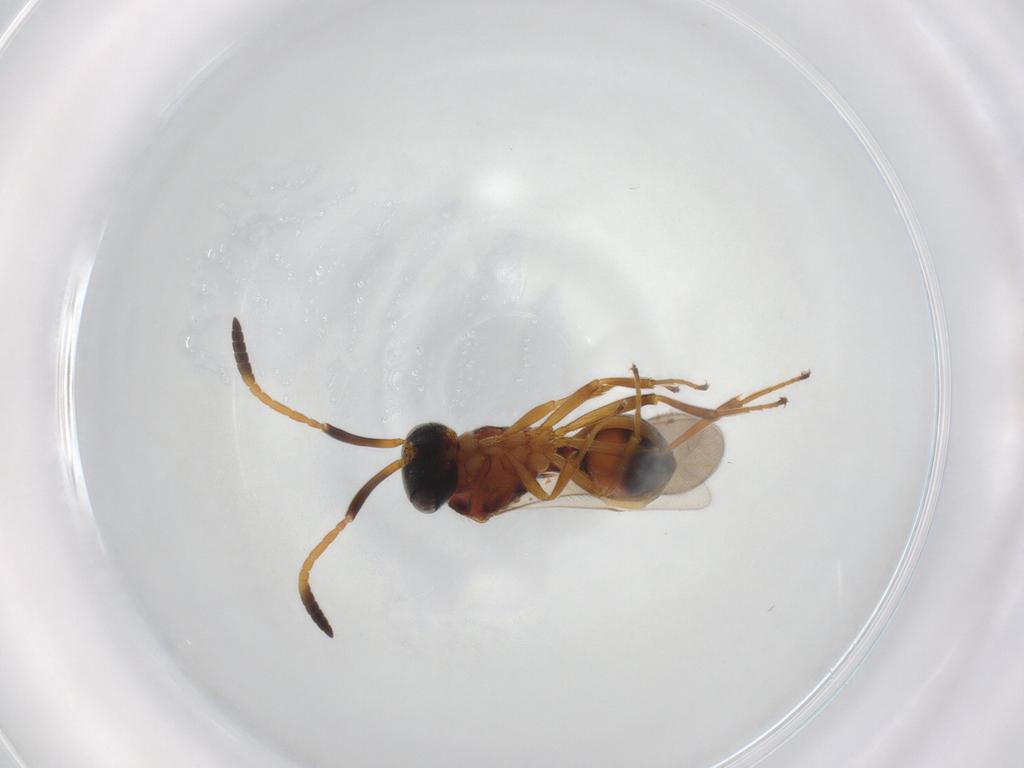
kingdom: Animalia
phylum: Arthropoda
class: Insecta
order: Hymenoptera
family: Scelionidae
